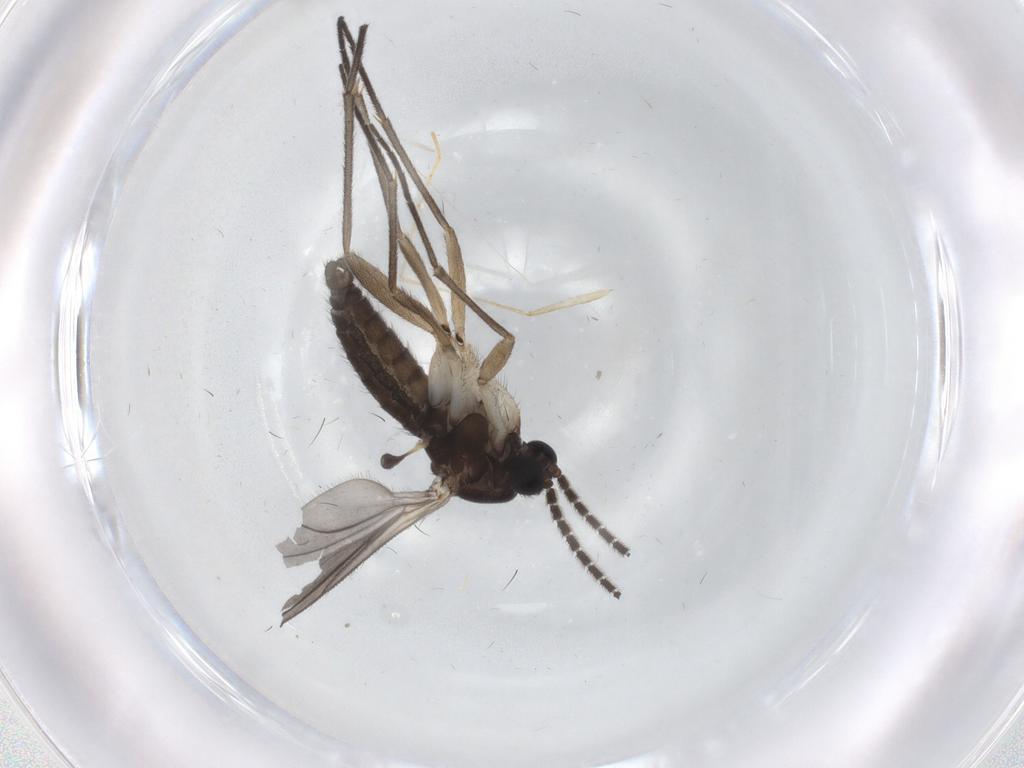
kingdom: Animalia
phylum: Arthropoda
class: Insecta
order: Diptera
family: Sciaridae
